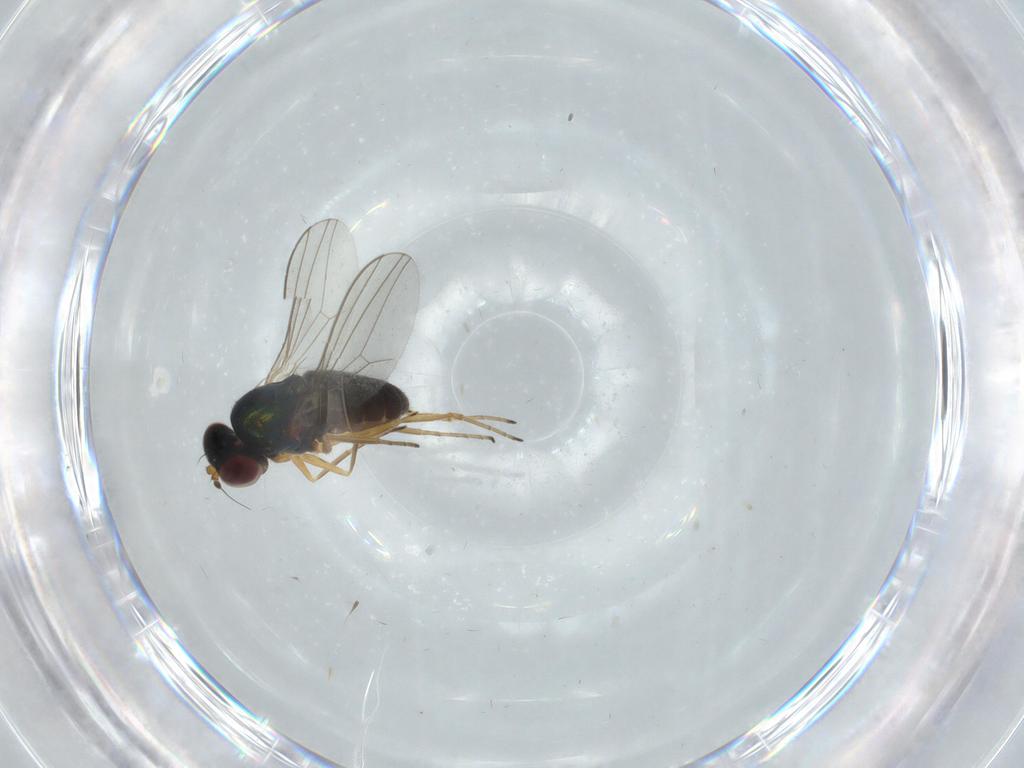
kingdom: Animalia
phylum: Arthropoda
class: Insecta
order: Diptera
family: Dolichopodidae
